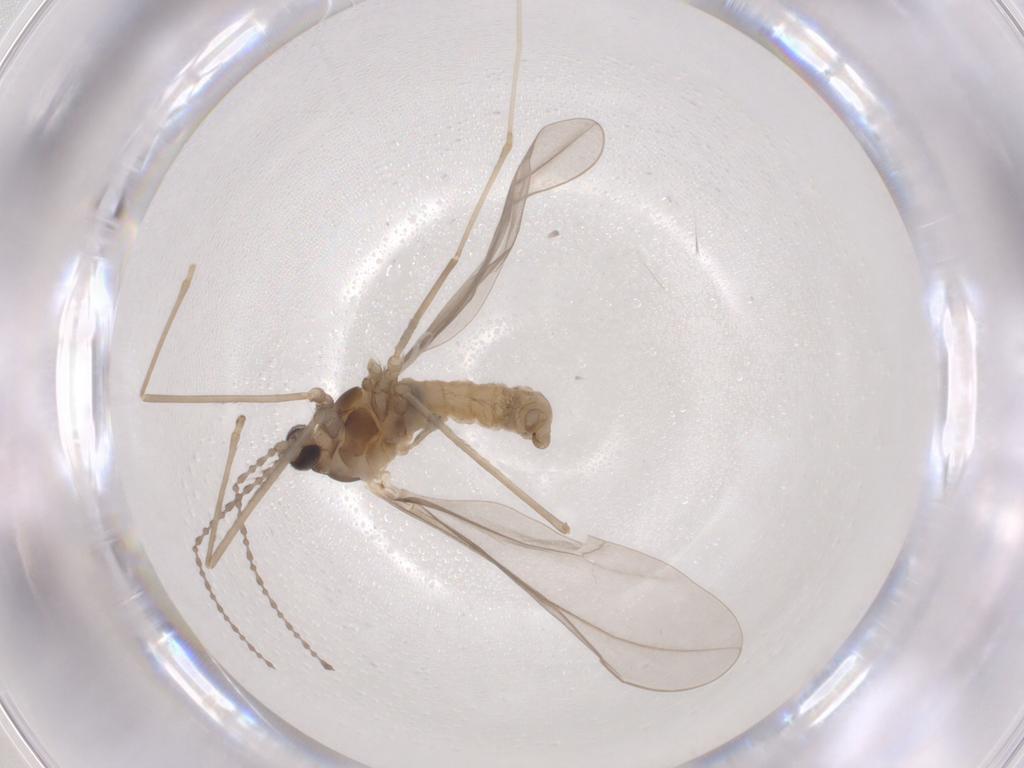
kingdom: Animalia
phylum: Arthropoda
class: Insecta
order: Diptera
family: Cecidomyiidae
